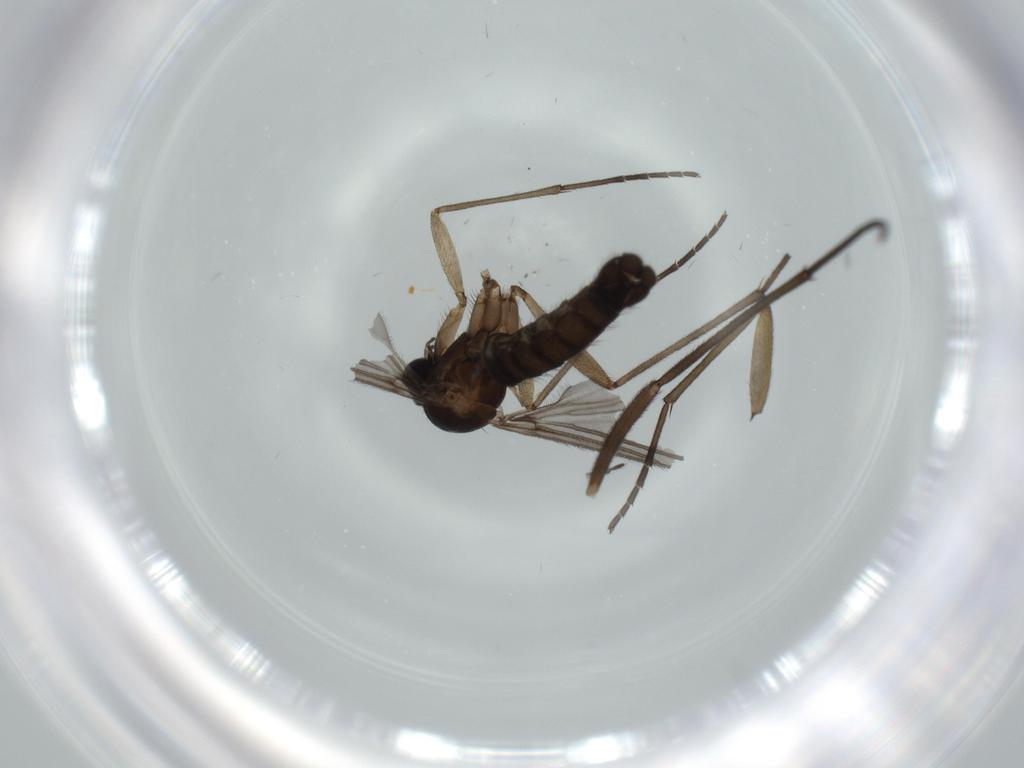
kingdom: Animalia
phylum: Arthropoda
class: Insecta
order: Diptera
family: Sciaridae
